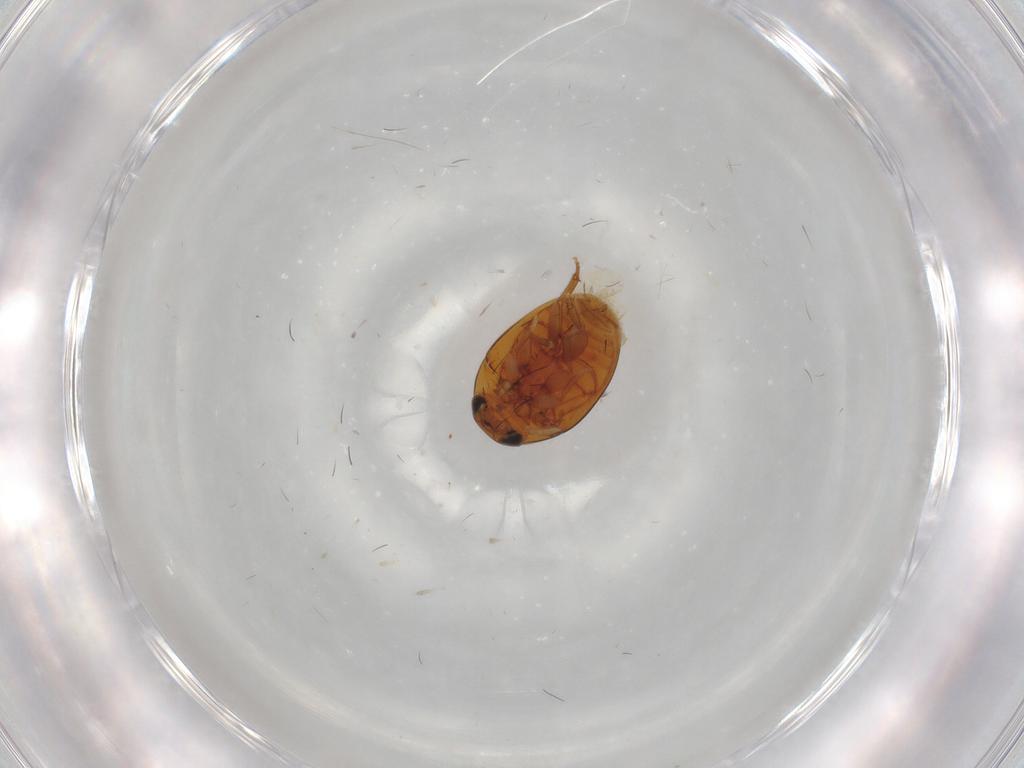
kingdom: Animalia
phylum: Arthropoda
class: Insecta
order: Coleoptera
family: Phalacridae
